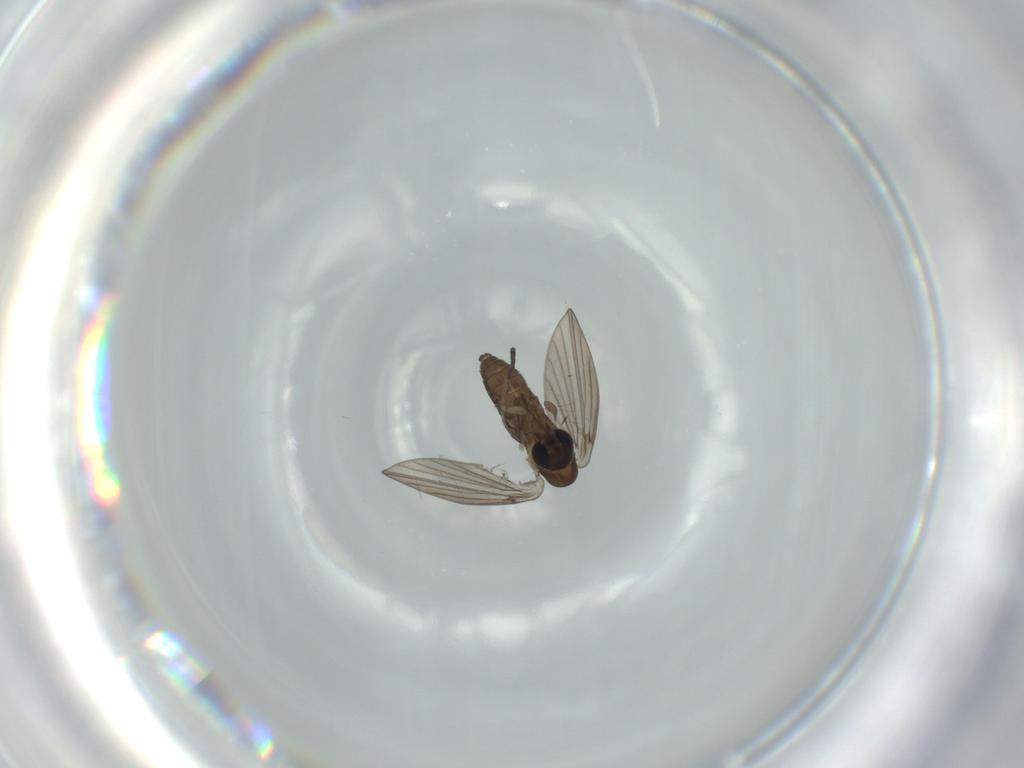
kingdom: Animalia
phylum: Arthropoda
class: Insecta
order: Diptera
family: Psychodidae
